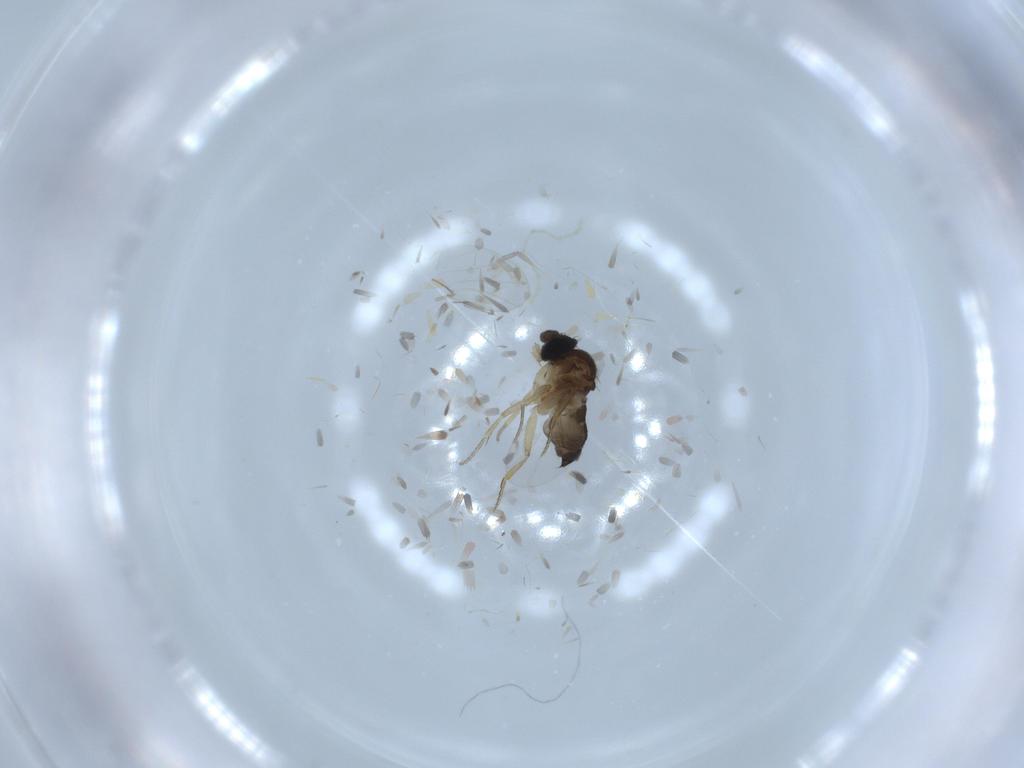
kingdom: Animalia
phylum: Arthropoda
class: Insecta
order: Diptera
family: Phoridae
